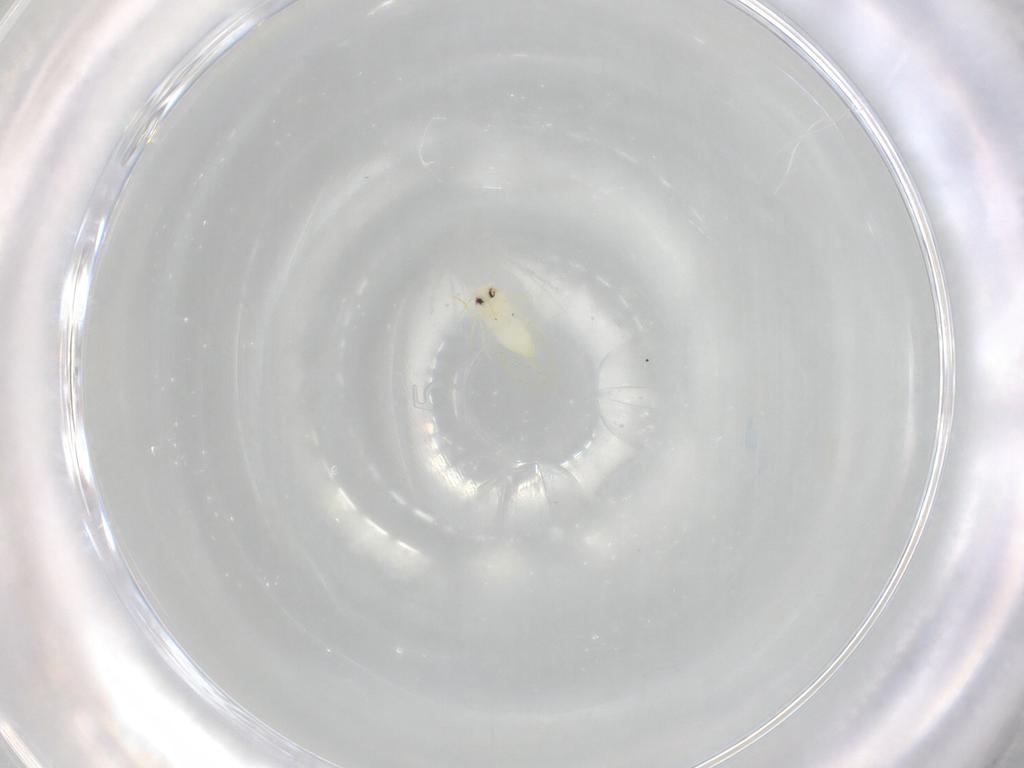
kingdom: Animalia
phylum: Arthropoda
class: Insecta
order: Hemiptera
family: Aleyrodidae
